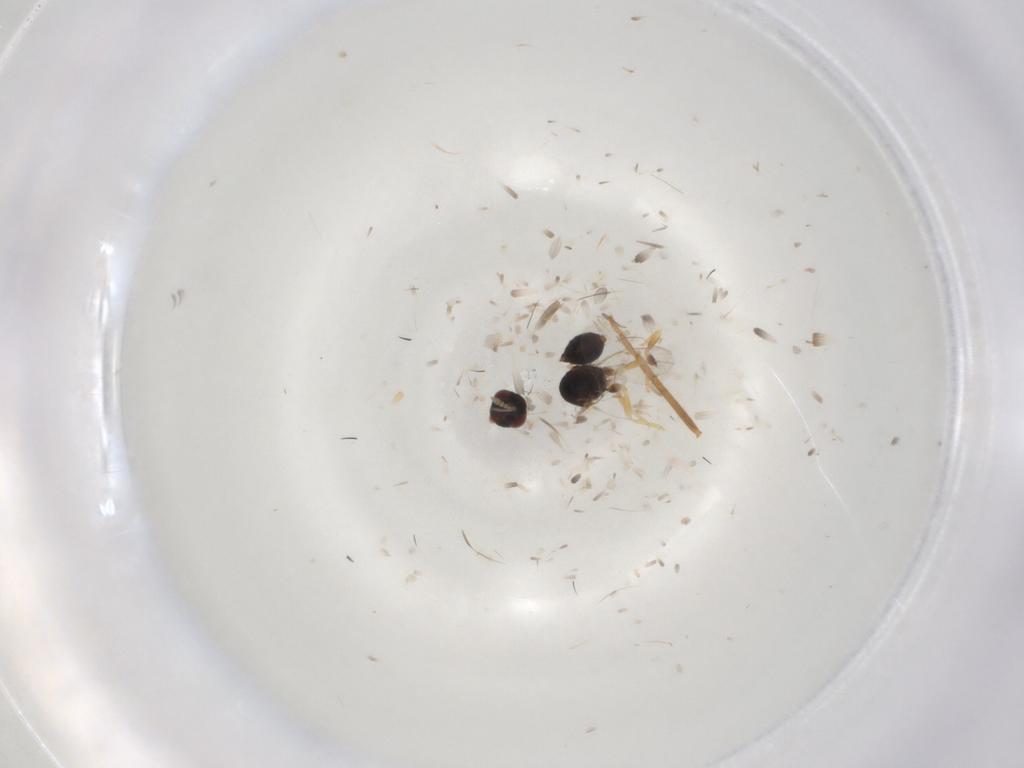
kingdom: Animalia
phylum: Arthropoda
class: Insecta
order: Hymenoptera
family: Eulophidae
